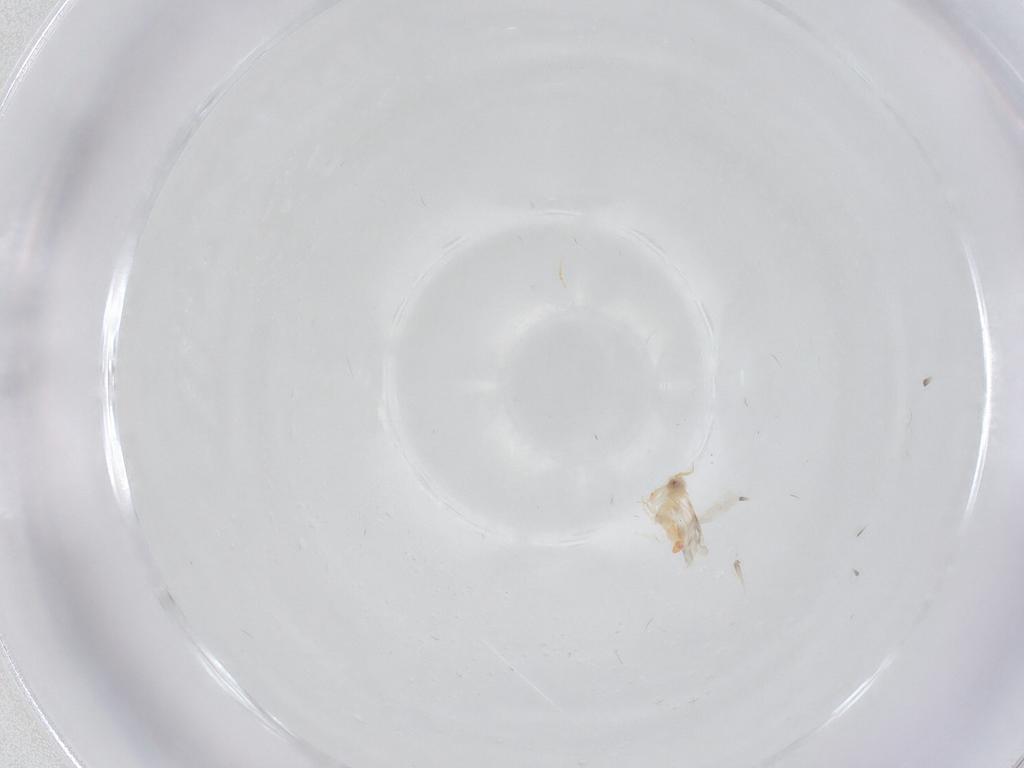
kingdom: Animalia
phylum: Arthropoda
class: Insecta
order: Hemiptera
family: Aleyrodidae
